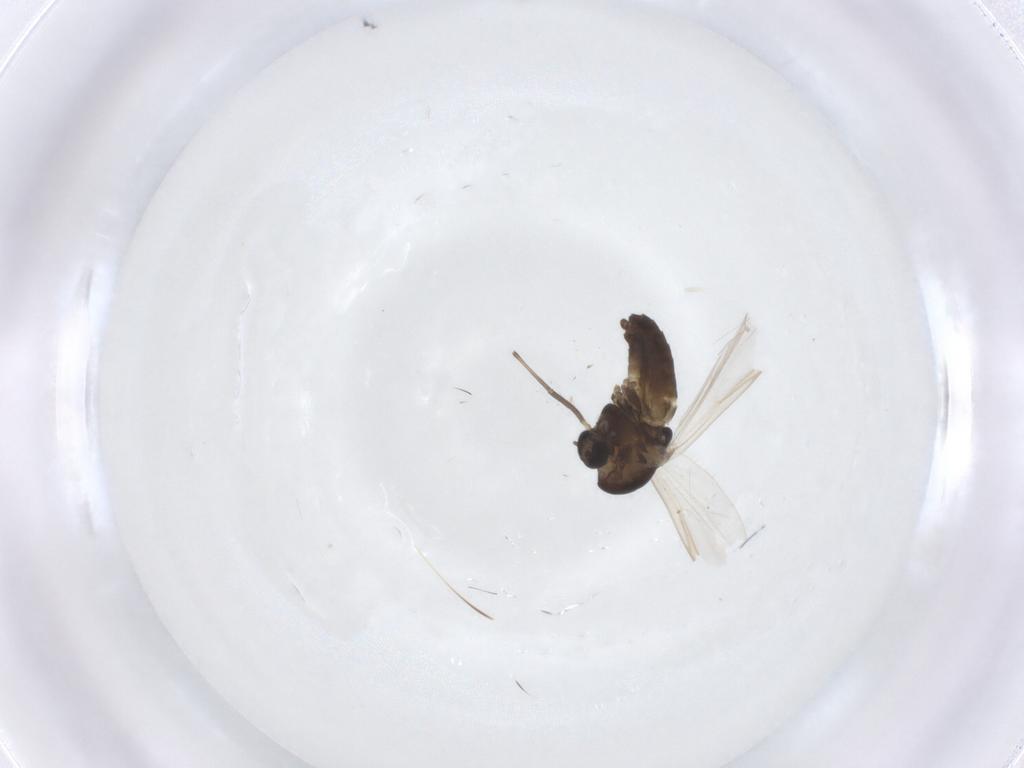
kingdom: Animalia
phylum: Arthropoda
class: Insecta
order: Diptera
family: Chironomidae
